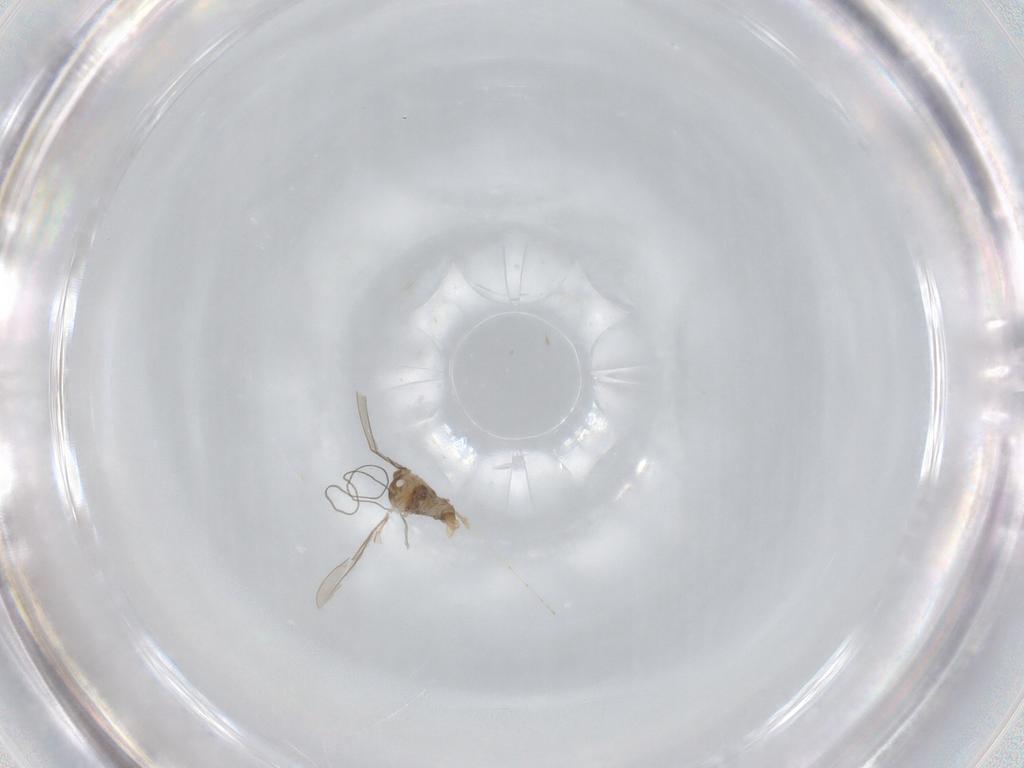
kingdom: Animalia
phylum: Arthropoda
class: Insecta
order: Diptera
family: Cecidomyiidae
